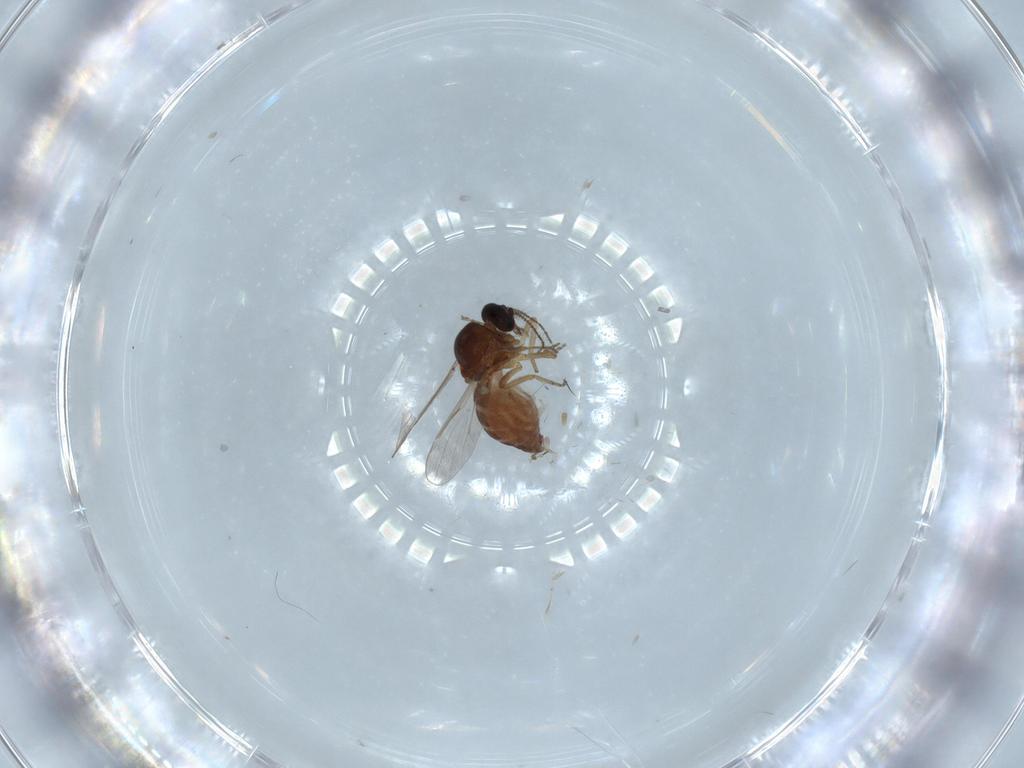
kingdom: Animalia
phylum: Arthropoda
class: Insecta
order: Diptera
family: Ceratopogonidae
